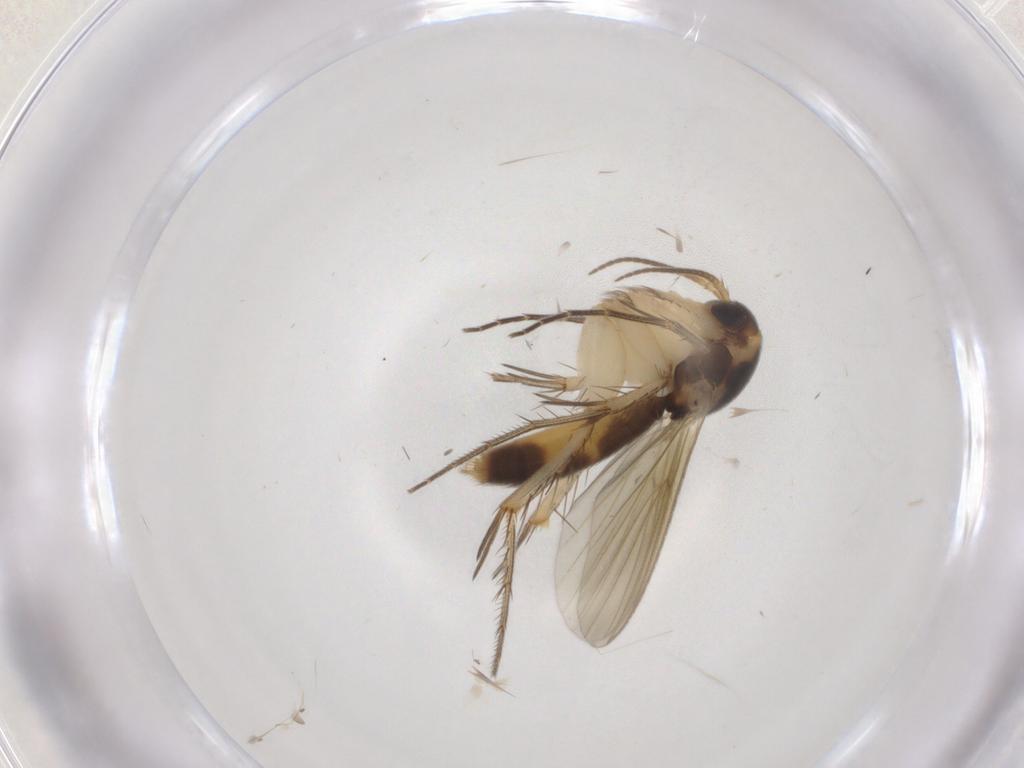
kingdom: Animalia
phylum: Arthropoda
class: Insecta
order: Diptera
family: Mycetophilidae
